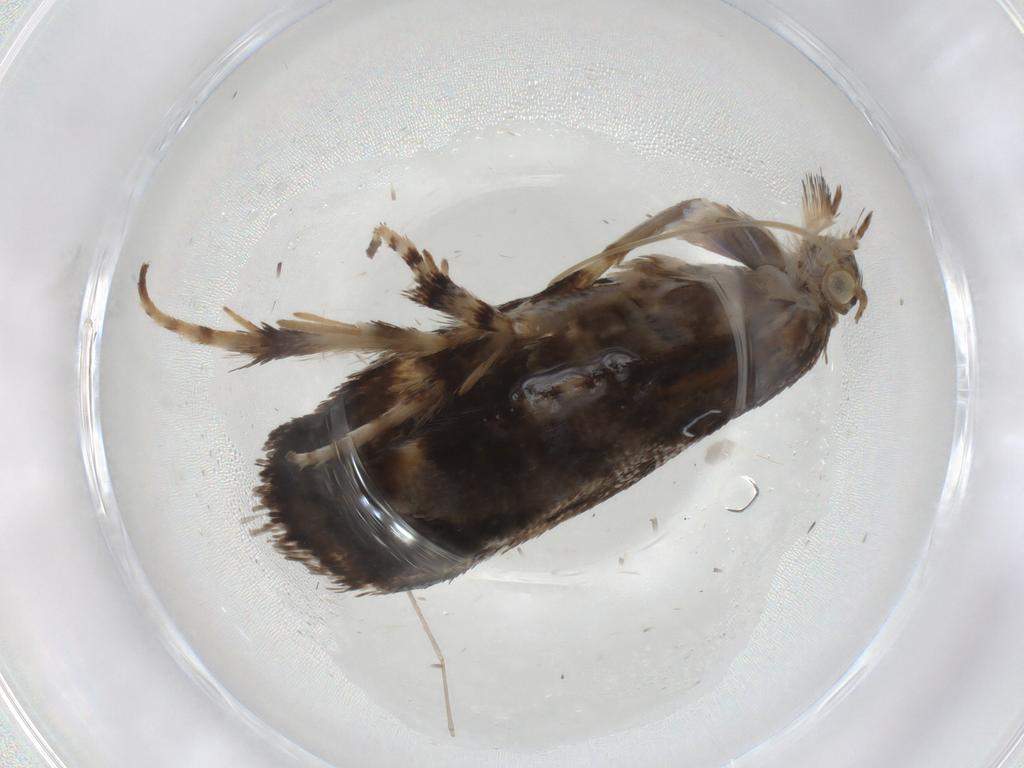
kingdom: Animalia
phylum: Arthropoda
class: Insecta
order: Lepidoptera
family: Choreutidae
